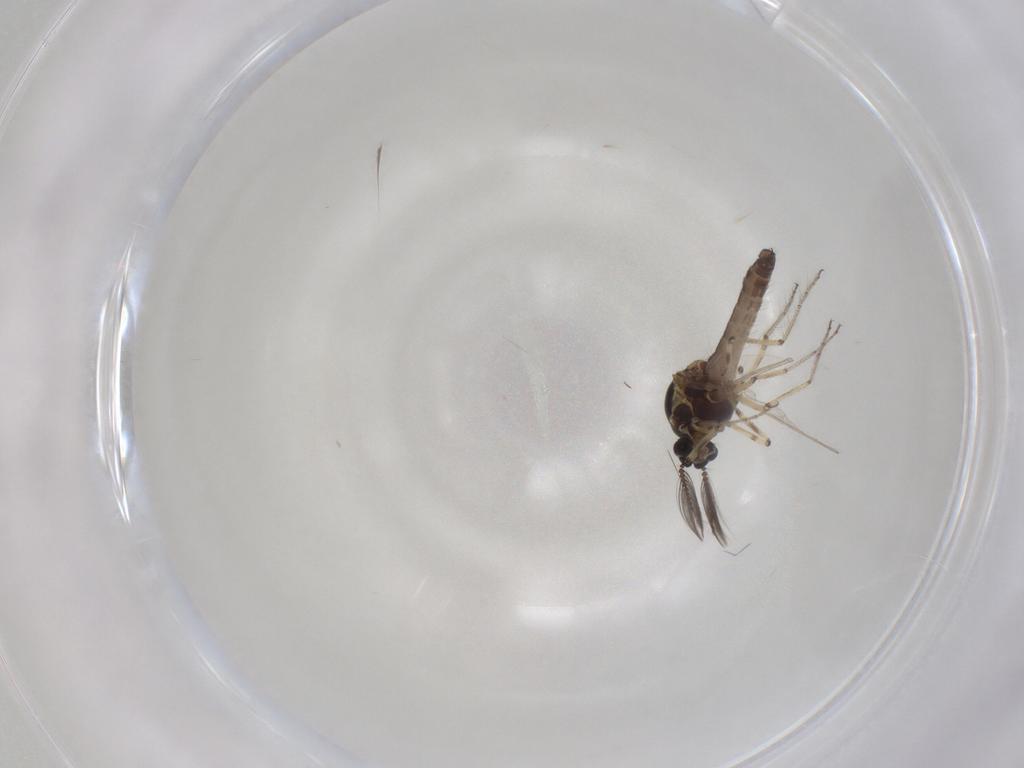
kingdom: Animalia
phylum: Arthropoda
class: Insecta
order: Diptera
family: Ceratopogonidae
